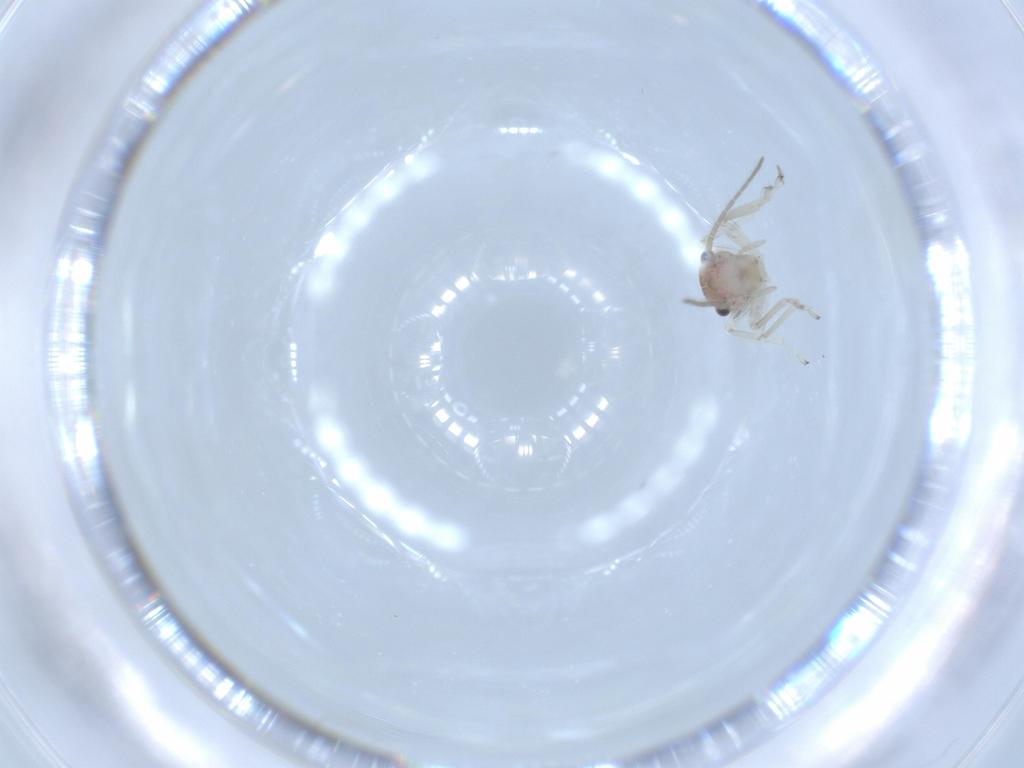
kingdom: Animalia
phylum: Arthropoda
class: Insecta
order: Psocodea
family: Amphipsocidae
